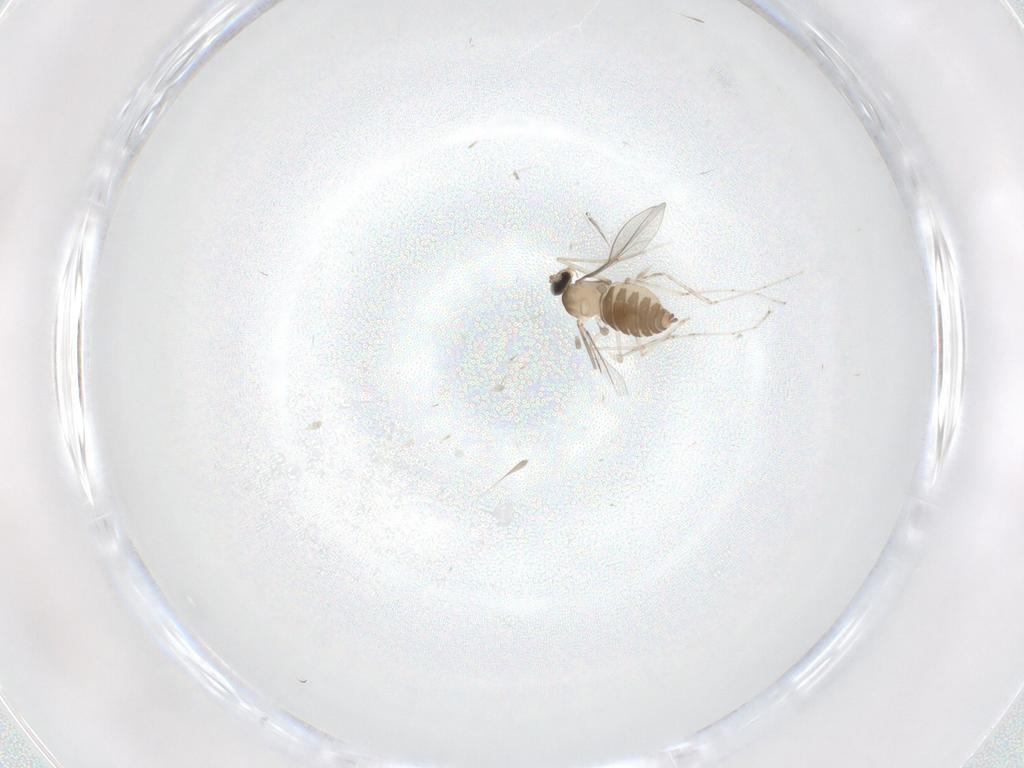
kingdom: Animalia
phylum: Arthropoda
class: Insecta
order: Diptera
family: Cecidomyiidae
